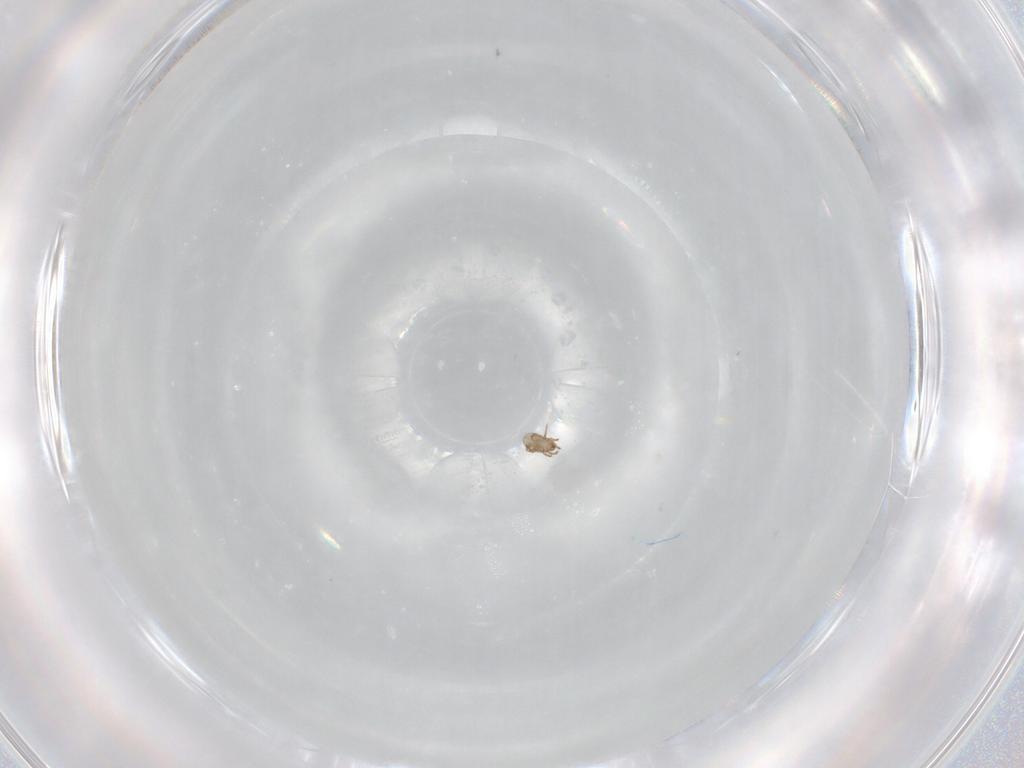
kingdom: Animalia
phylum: Arthropoda
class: Arachnida
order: Sarcoptiformes
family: Humerobatidae
